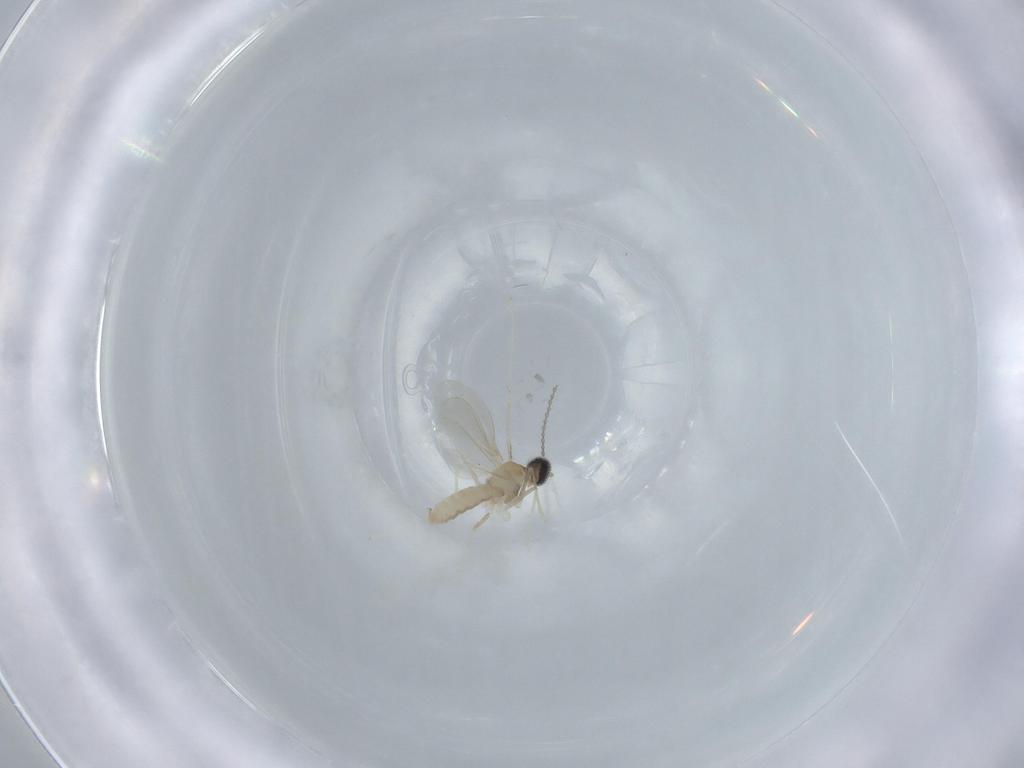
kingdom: Animalia
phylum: Arthropoda
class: Insecta
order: Diptera
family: Cecidomyiidae
